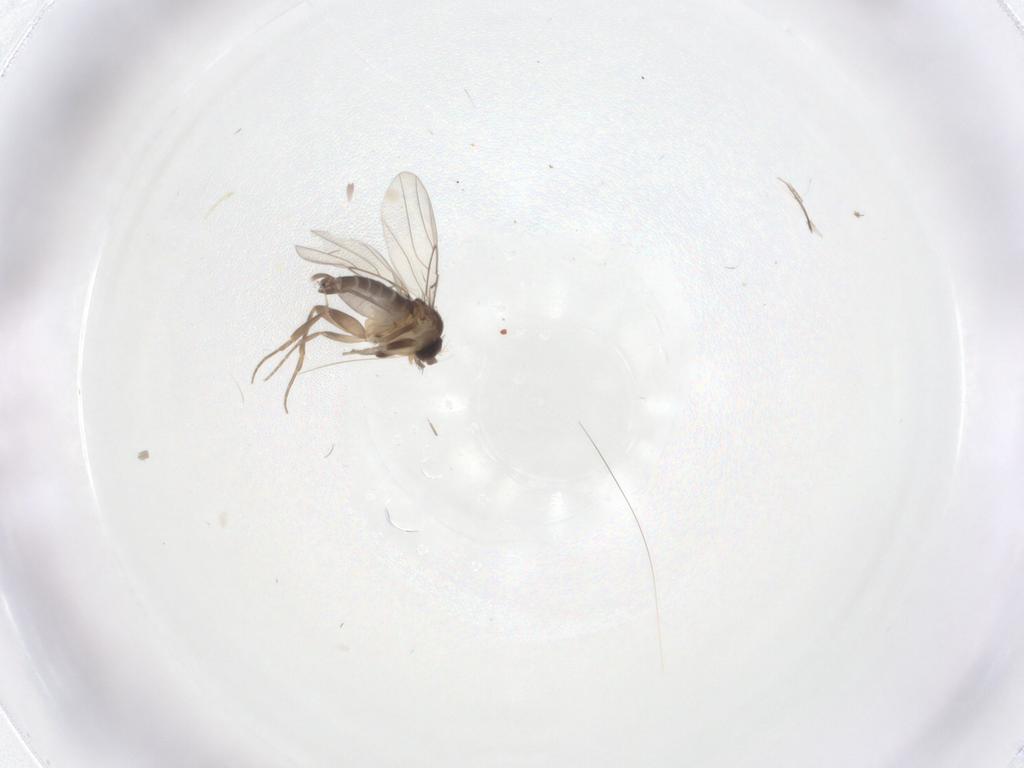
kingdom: Animalia
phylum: Arthropoda
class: Insecta
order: Diptera
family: Phoridae
